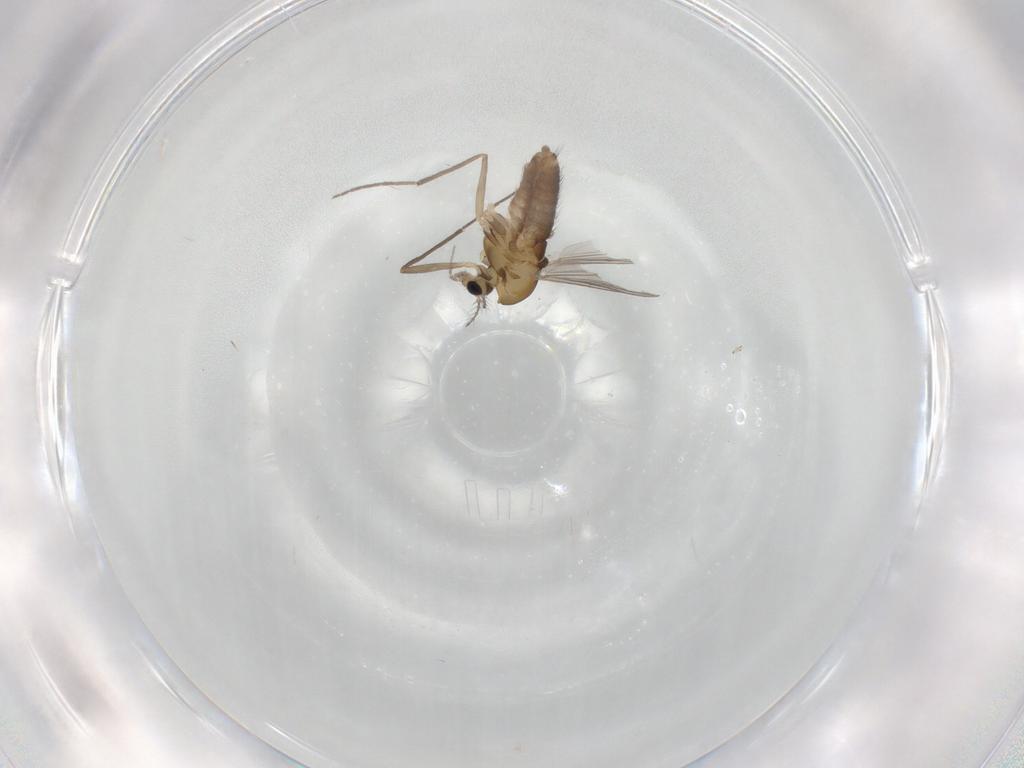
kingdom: Animalia
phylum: Arthropoda
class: Insecta
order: Diptera
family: Chironomidae
